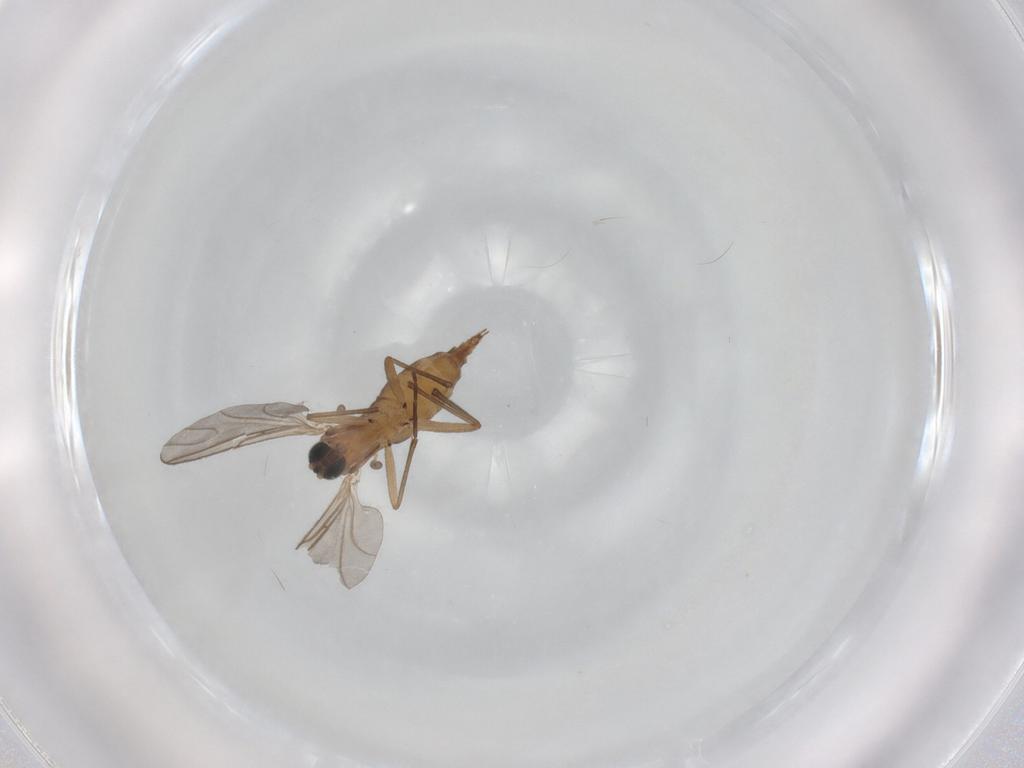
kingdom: Animalia
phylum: Arthropoda
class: Insecta
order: Diptera
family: Sciaridae
